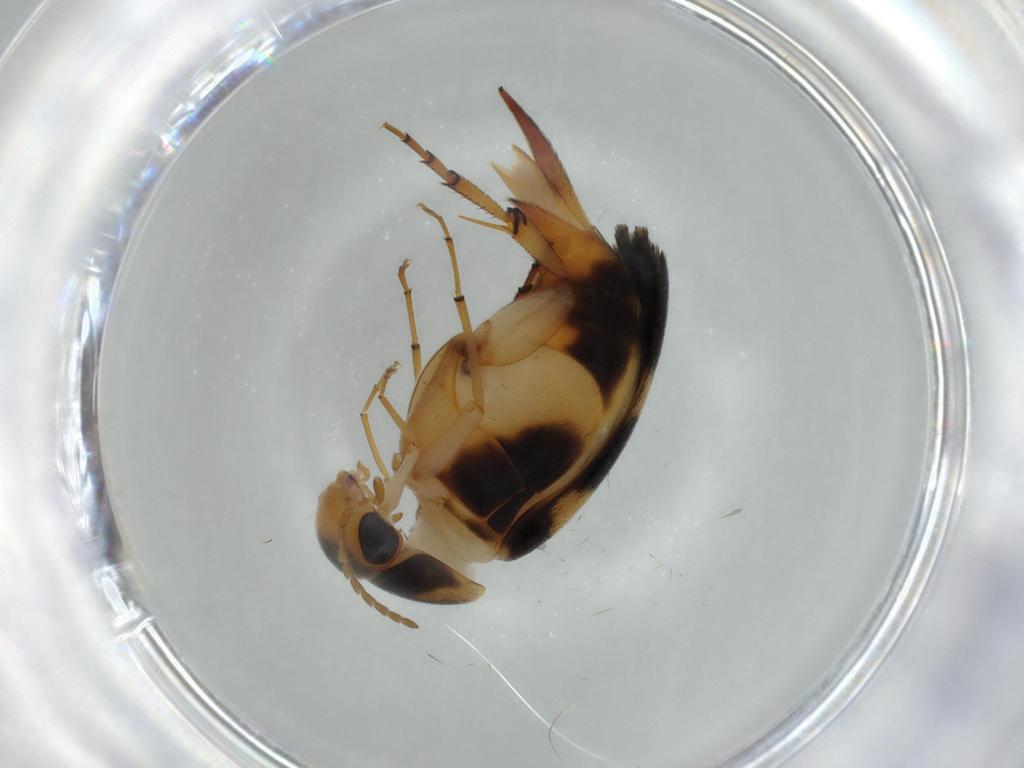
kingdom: Animalia
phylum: Arthropoda
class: Insecta
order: Coleoptera
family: Mordellidae
